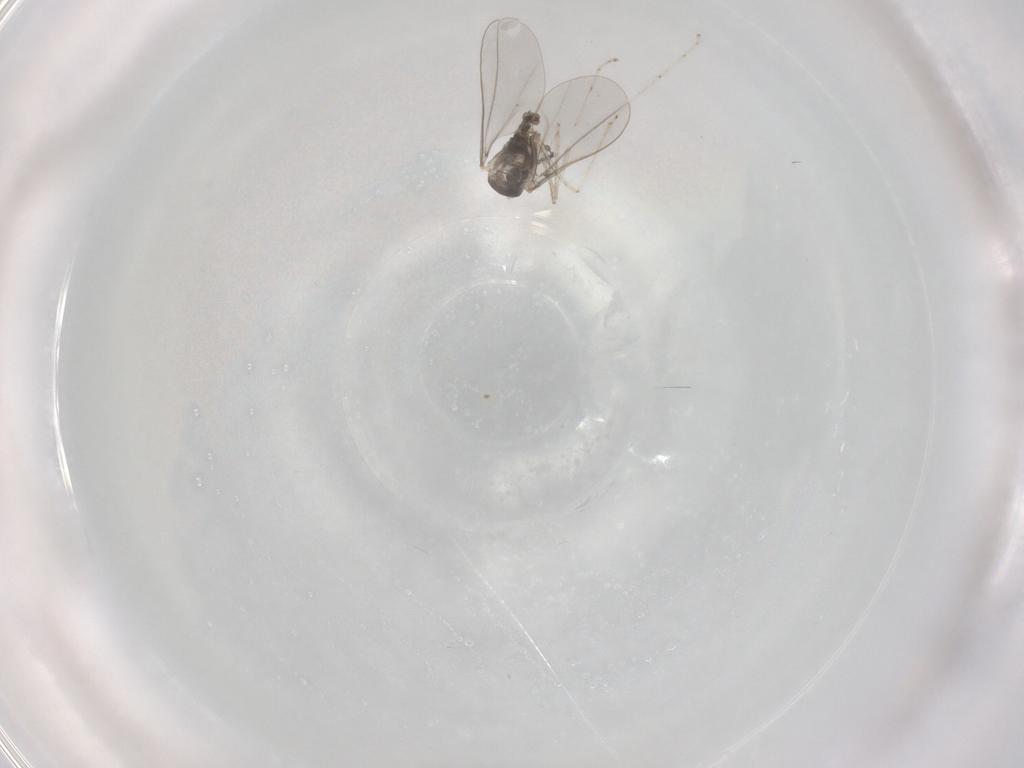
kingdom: Animalia
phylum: Arthropoda
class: Insecta
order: Diptera
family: Cecidomyiidae
